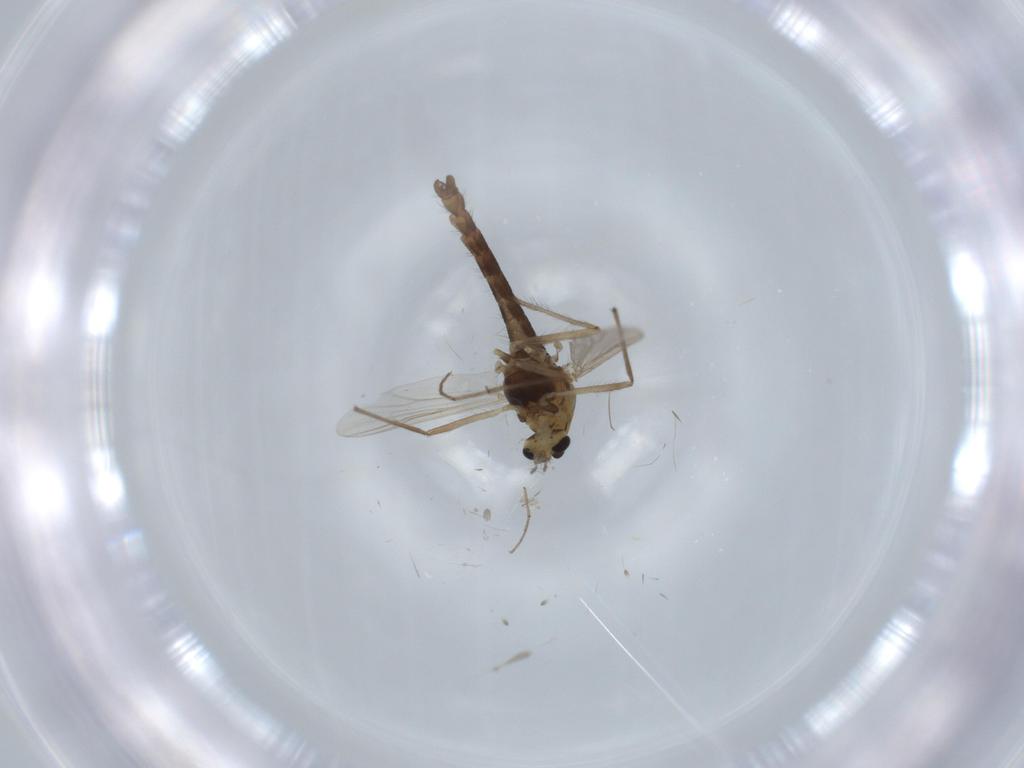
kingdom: Animalia
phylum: Arthropoda
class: Insecta
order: Diptera
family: Chironomidae
